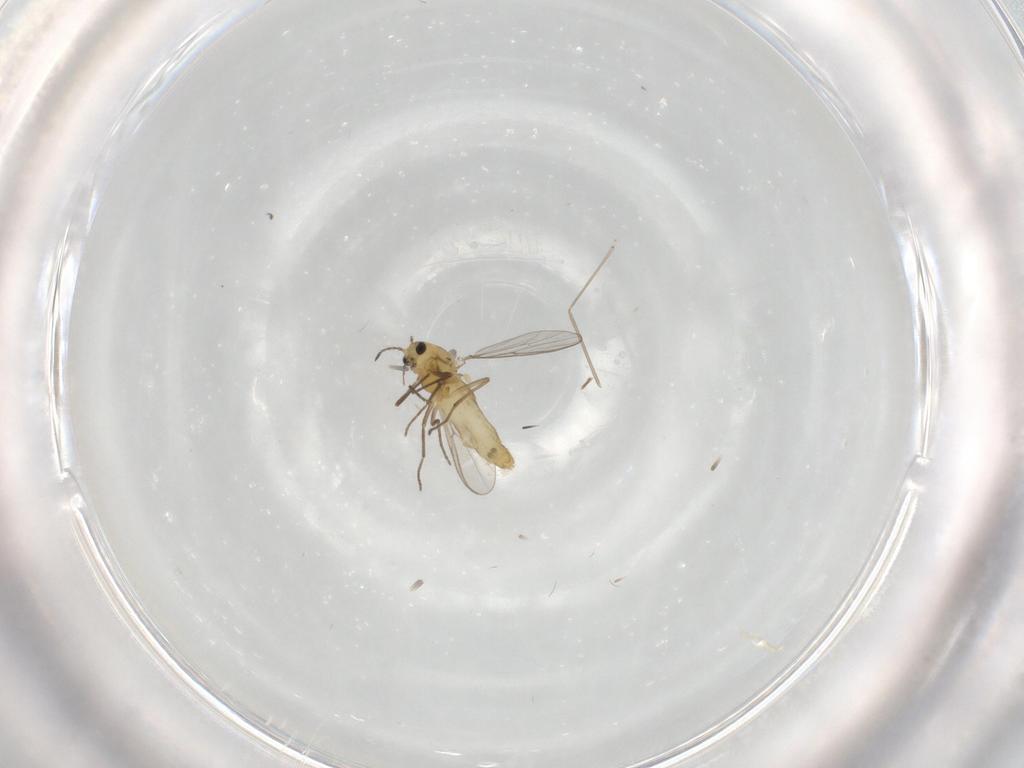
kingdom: Animalia
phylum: Arthropoda
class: Insecta
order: Diptera
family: Chironomidae
